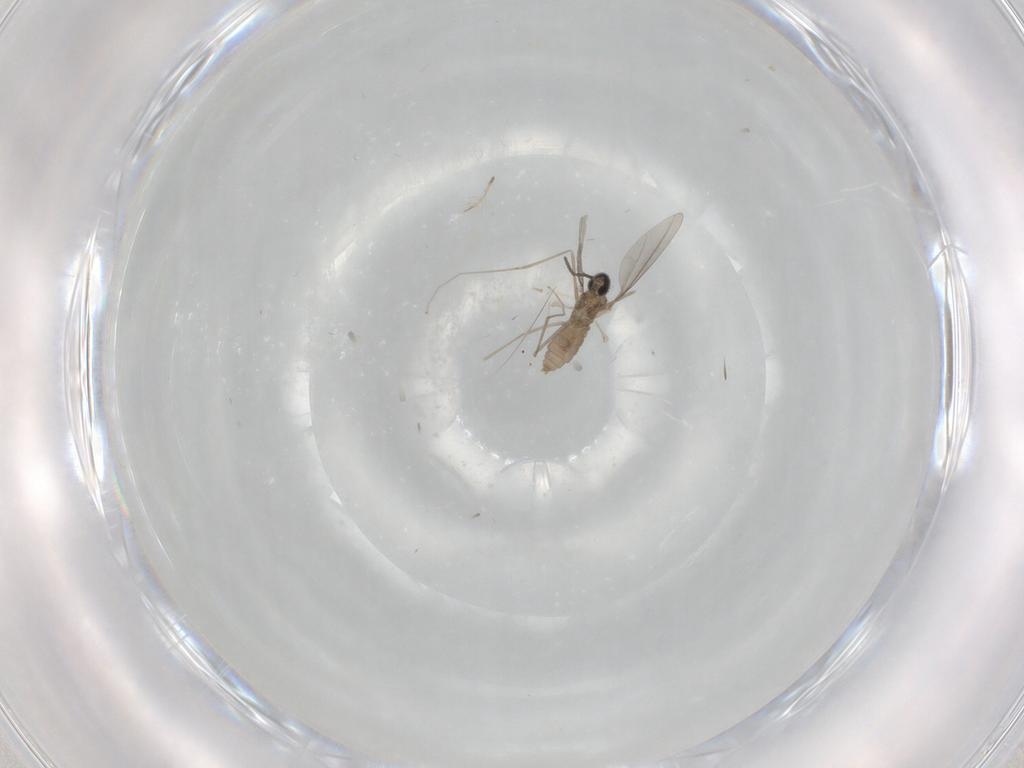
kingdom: Animalia
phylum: Arthropoda
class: Insecta
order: Diptera
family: Cecidomyiidae
